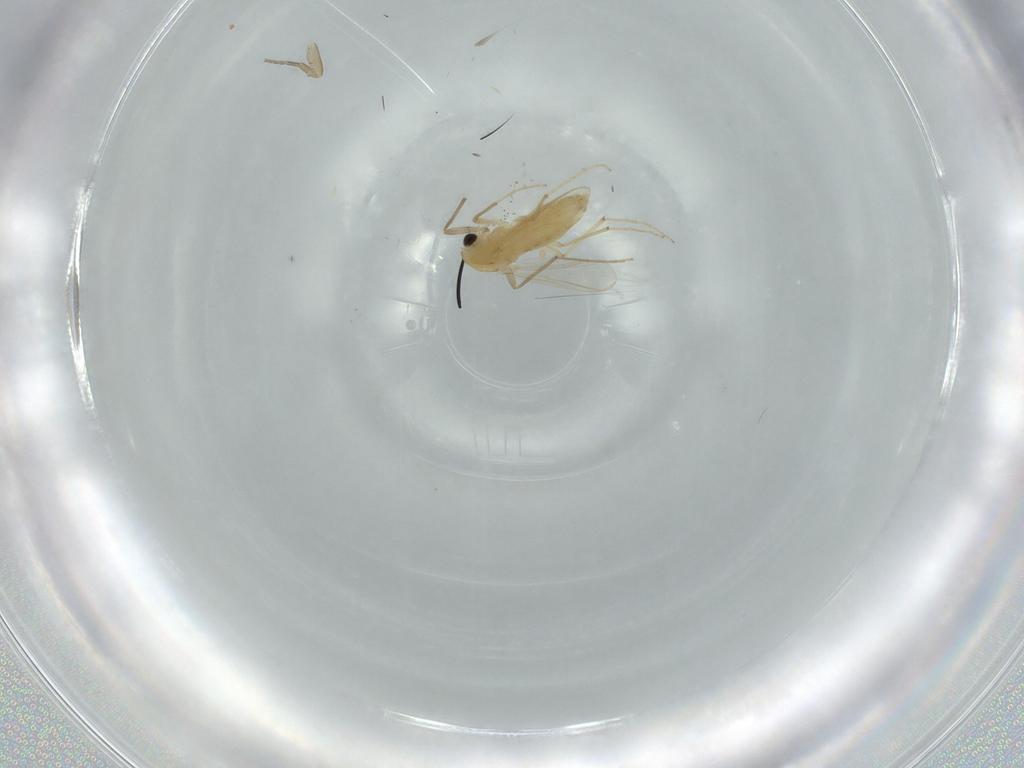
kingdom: Animalia
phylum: Arthropoda
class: Insecta
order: Diptera
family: Chironomidae
